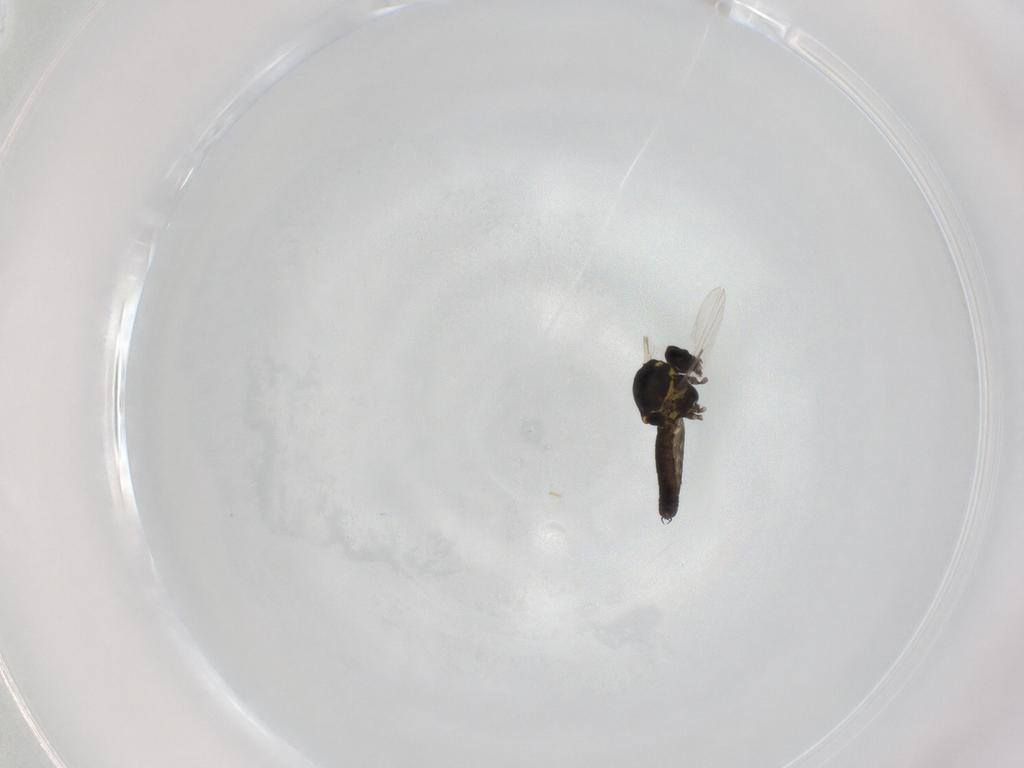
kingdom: Animalia
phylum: Arthropoda
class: Insecta
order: Diptera
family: Ceratopogonidae
